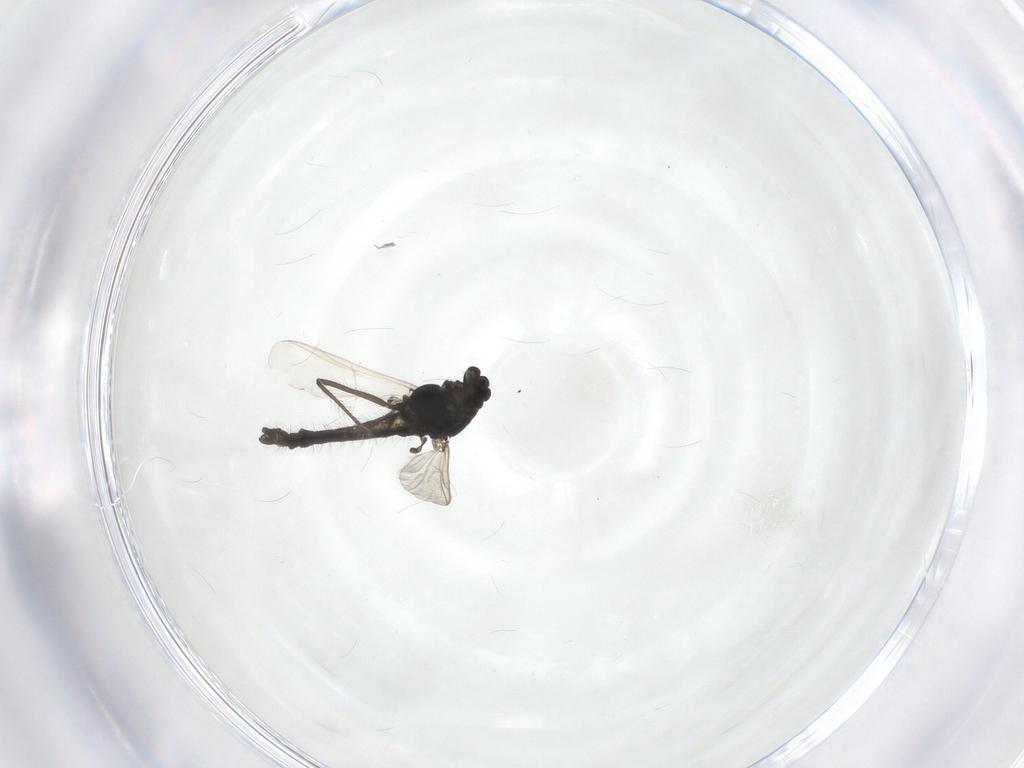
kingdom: Animalia
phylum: Arthropoda
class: Insecta
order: Diptera
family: Chironomidae
